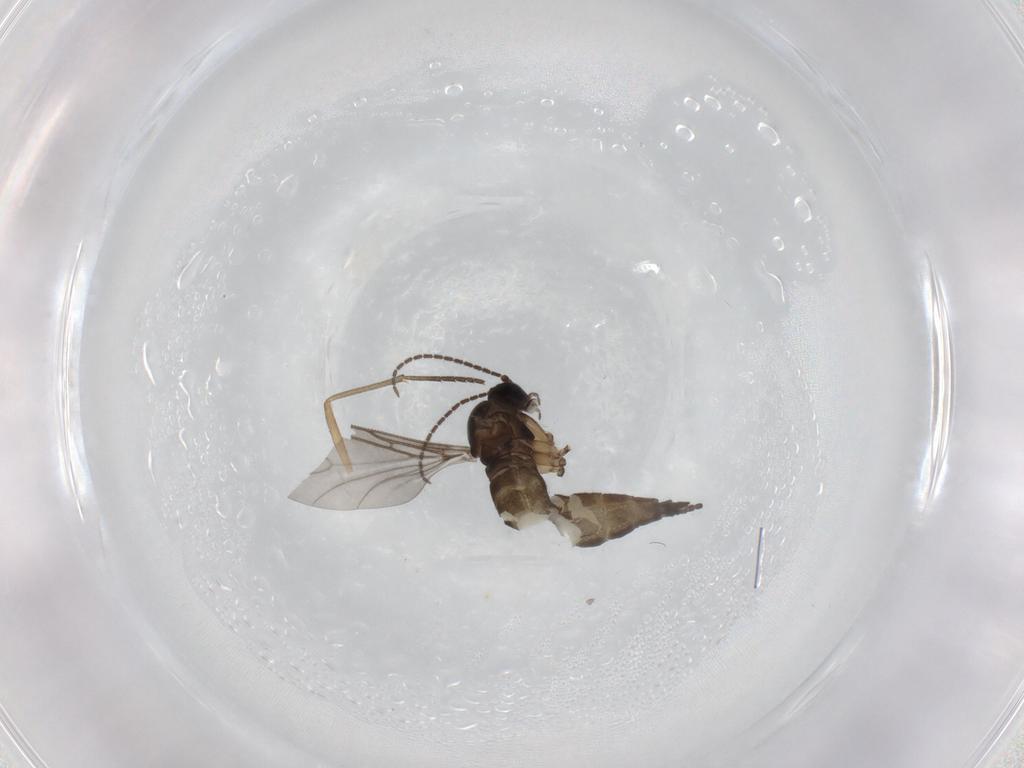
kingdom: Animalia
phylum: Arthropoda
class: Insecta
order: Diptera
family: Sciaridae
